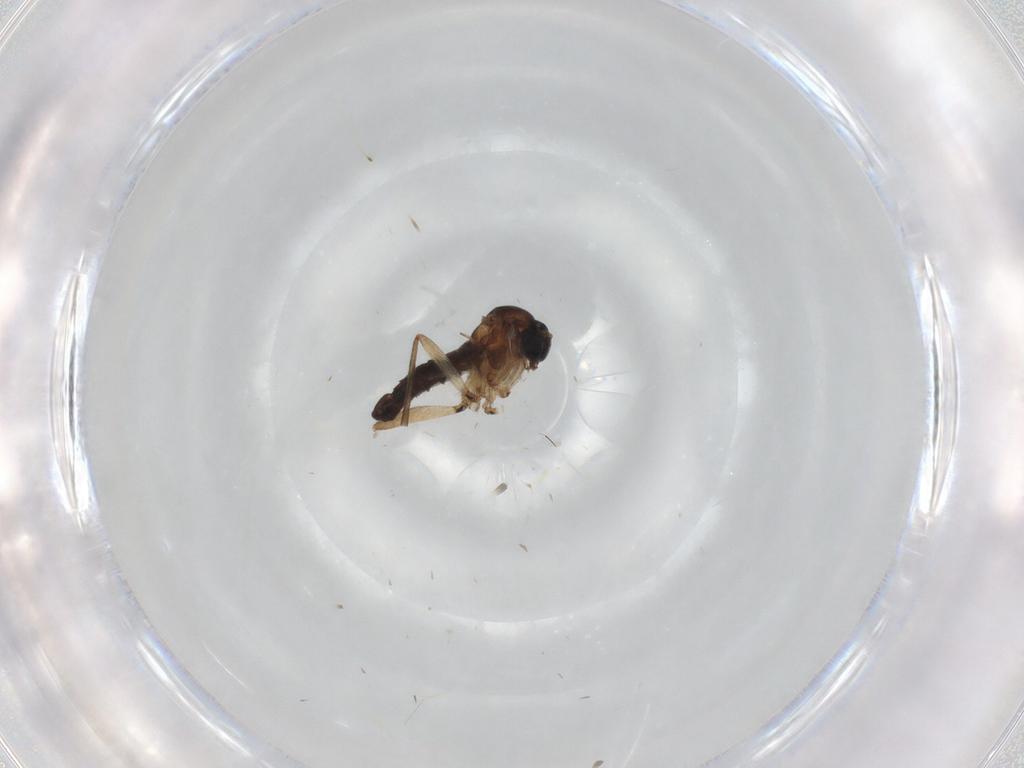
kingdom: Animalia
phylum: Arthropoda
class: Insecta
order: Diptera
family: Sciaridae
